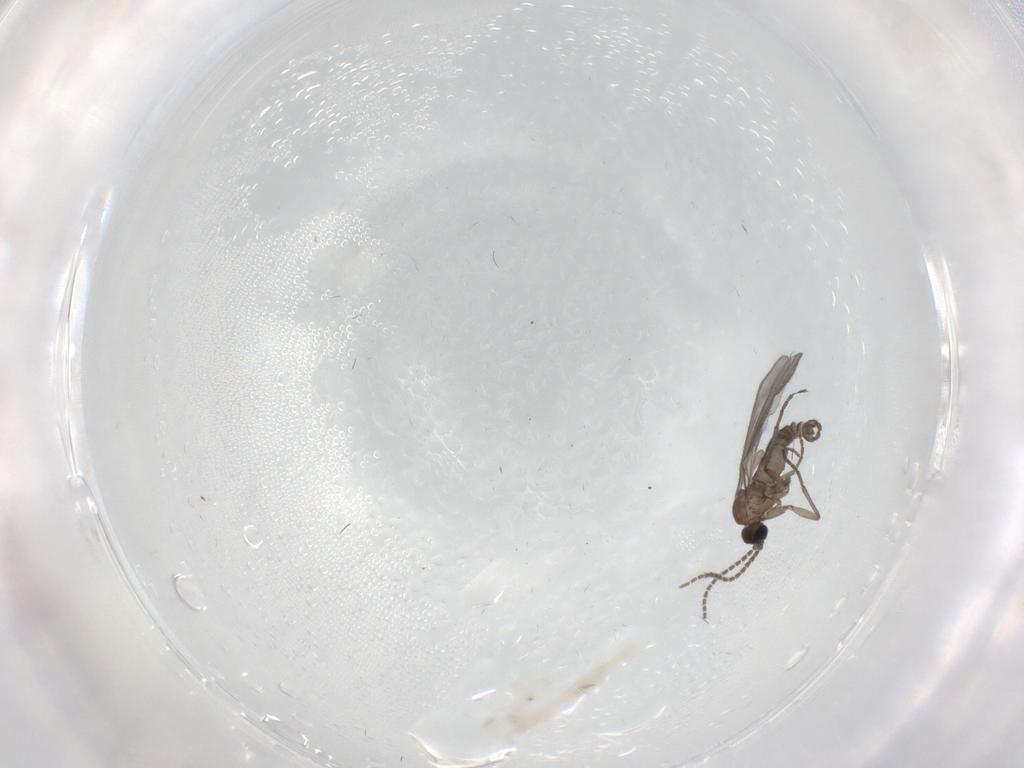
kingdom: Animalia
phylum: Arthropoda
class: Insecta
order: Diptera
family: Sciaridae
